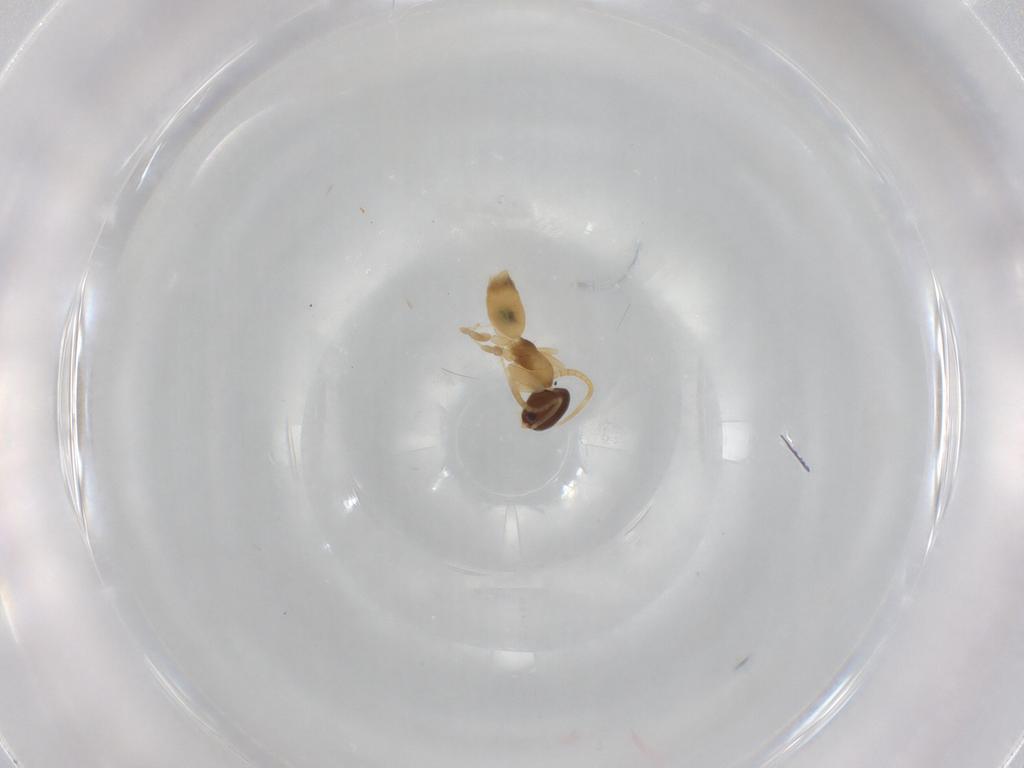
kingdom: Animalia
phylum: Arthropoda
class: Insecta
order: Hymenoptera
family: Formicidae
